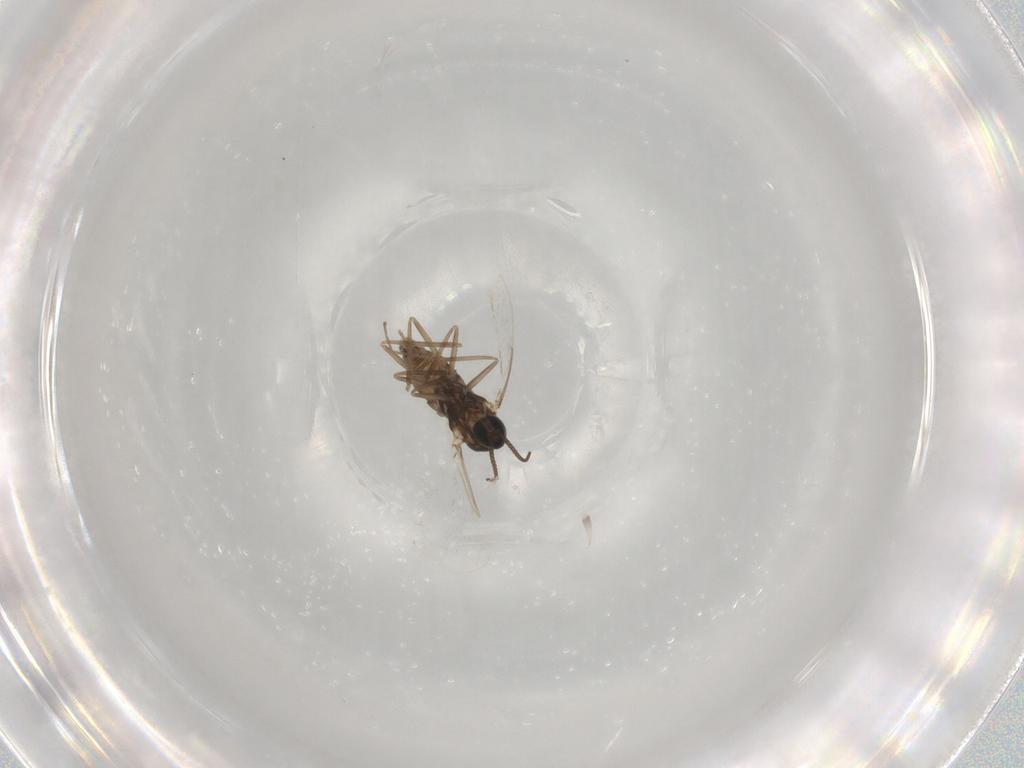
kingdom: Animalia
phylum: Arthropoda
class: Insecta
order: Diptera
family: Cecidomyiidae
